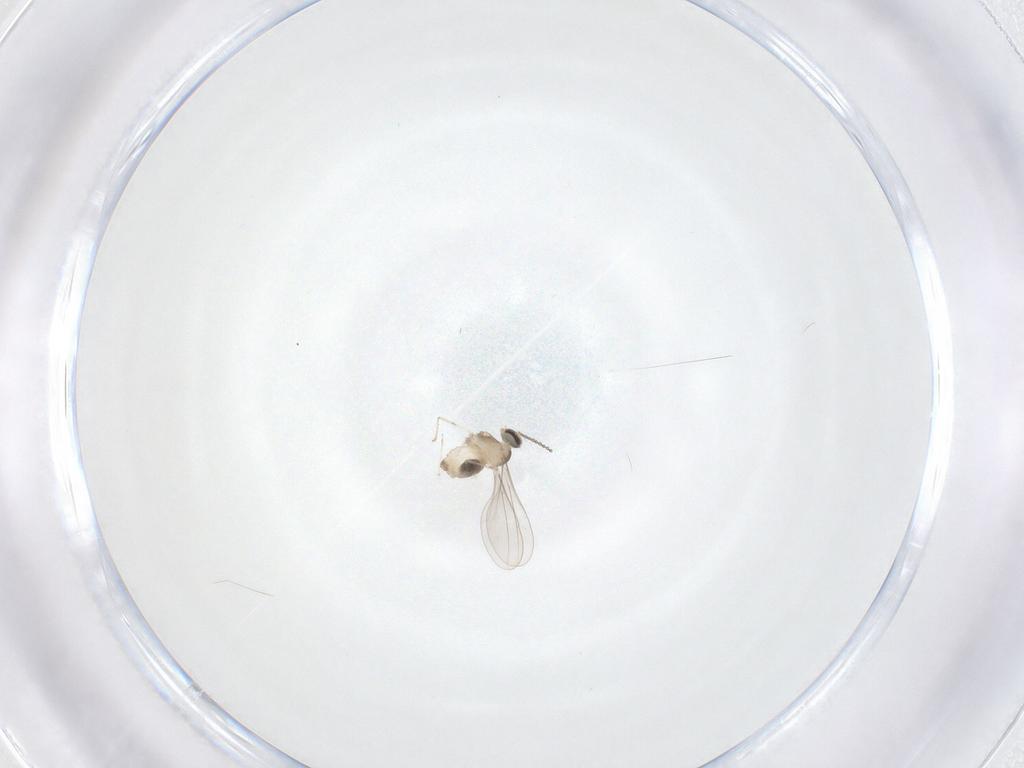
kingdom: Animalia
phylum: Arthropoda
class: Insecta
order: Diptera
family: Cecidomyiidae
